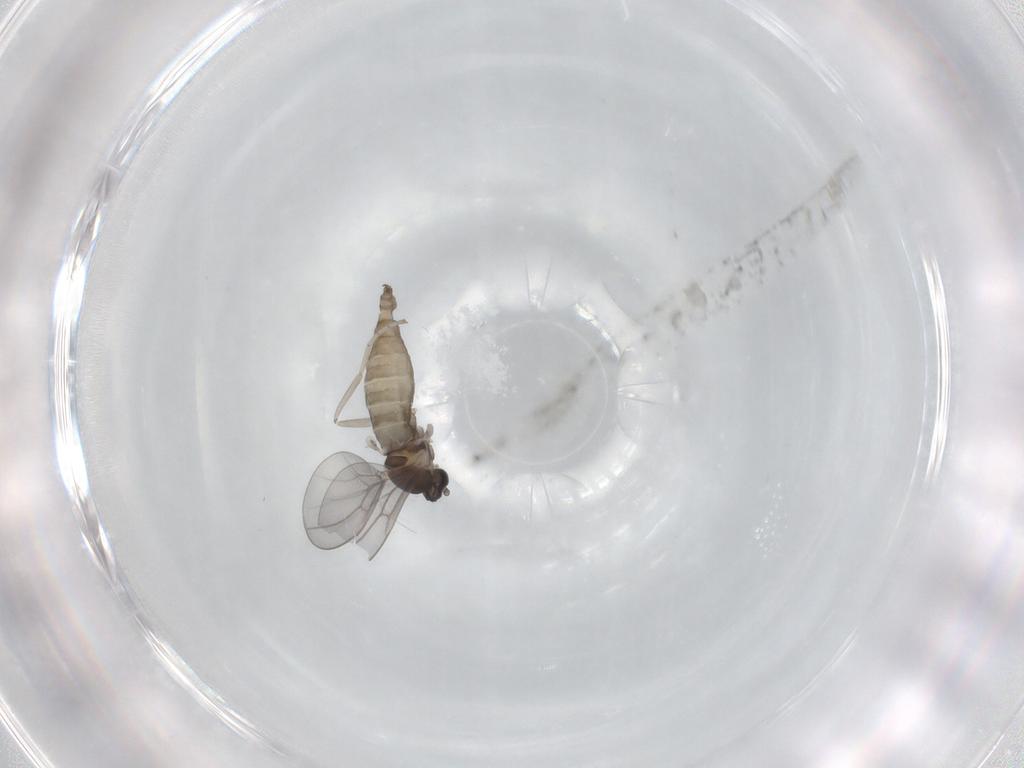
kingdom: Animalia
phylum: Arthropoda
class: Insecta
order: Diptera
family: Cecidomyiidae
